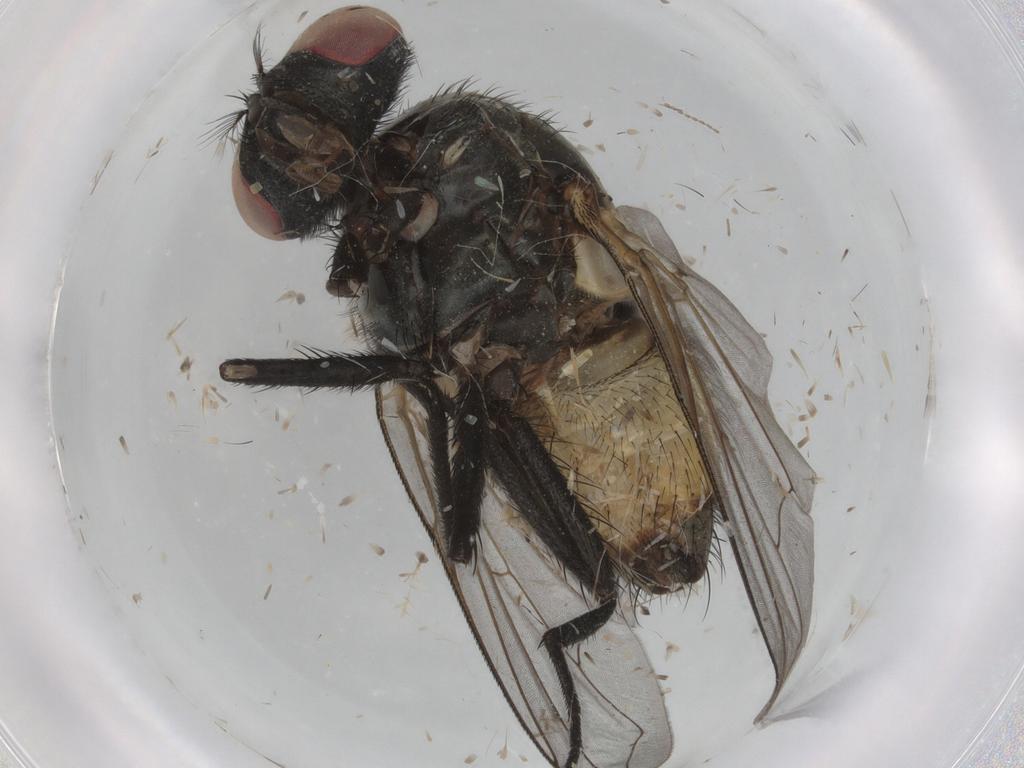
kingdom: Animalia
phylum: Arthropoda
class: Insecta
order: Diptera
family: Muscidae
